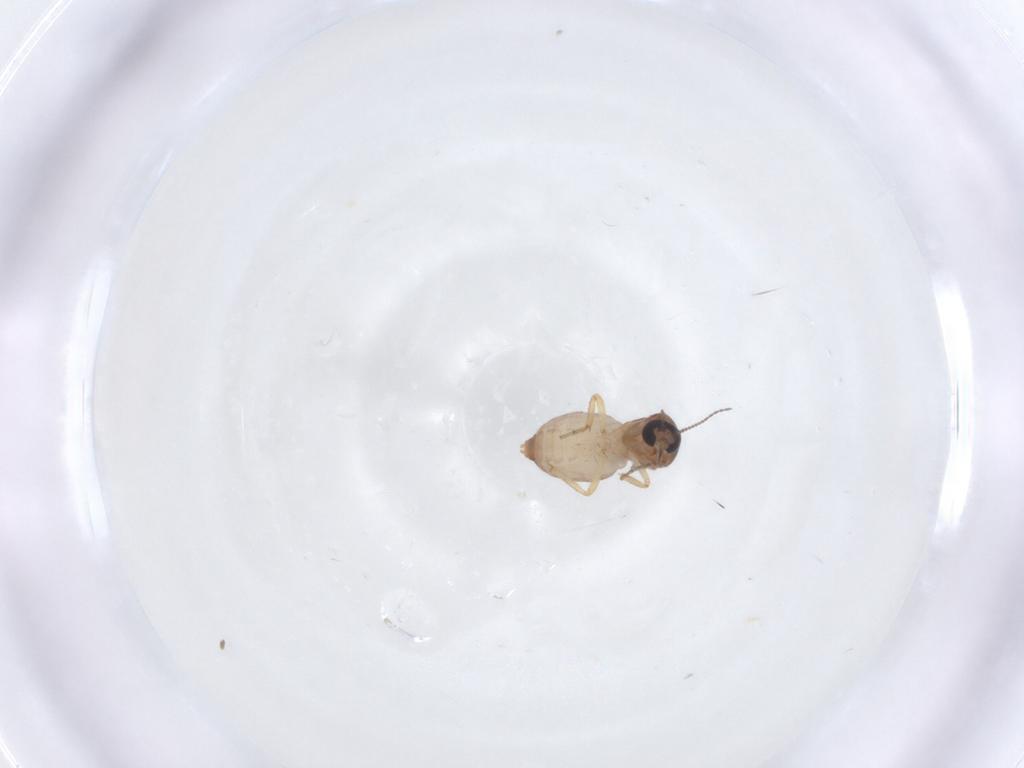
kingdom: Animalia
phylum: Arthropoda
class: Insecta
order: Diptera
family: Ceratopogonidae
